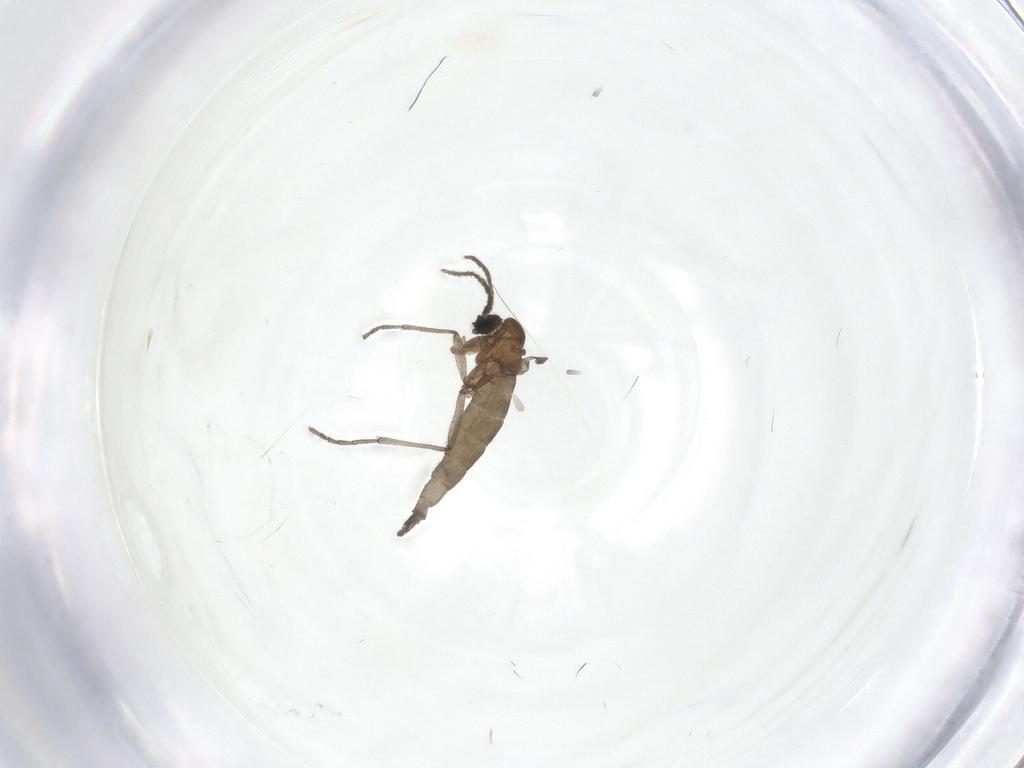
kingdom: Animalia
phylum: Arthropoda
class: Insecta
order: Diptera
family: Sciaridae
